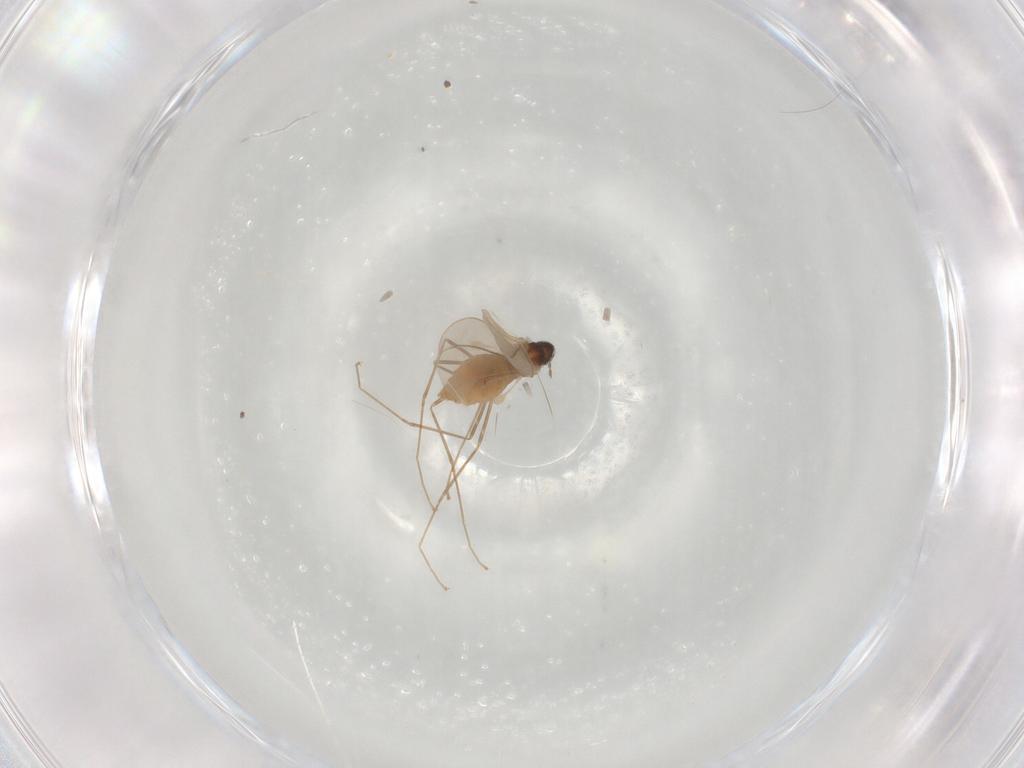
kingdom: Animalia
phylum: Arthropoda
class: Insecta
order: Diptera
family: Cecidomyiidae
